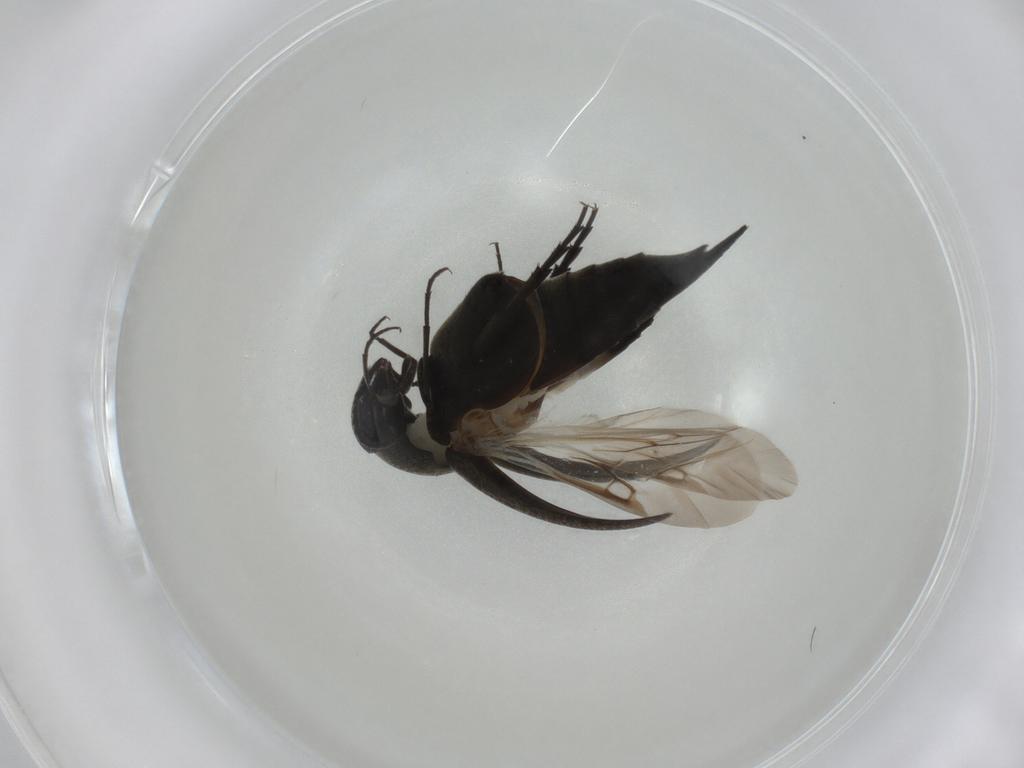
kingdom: Animalia
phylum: Arthropoda
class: Insecta
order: Coleoptera
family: Mordellidae
